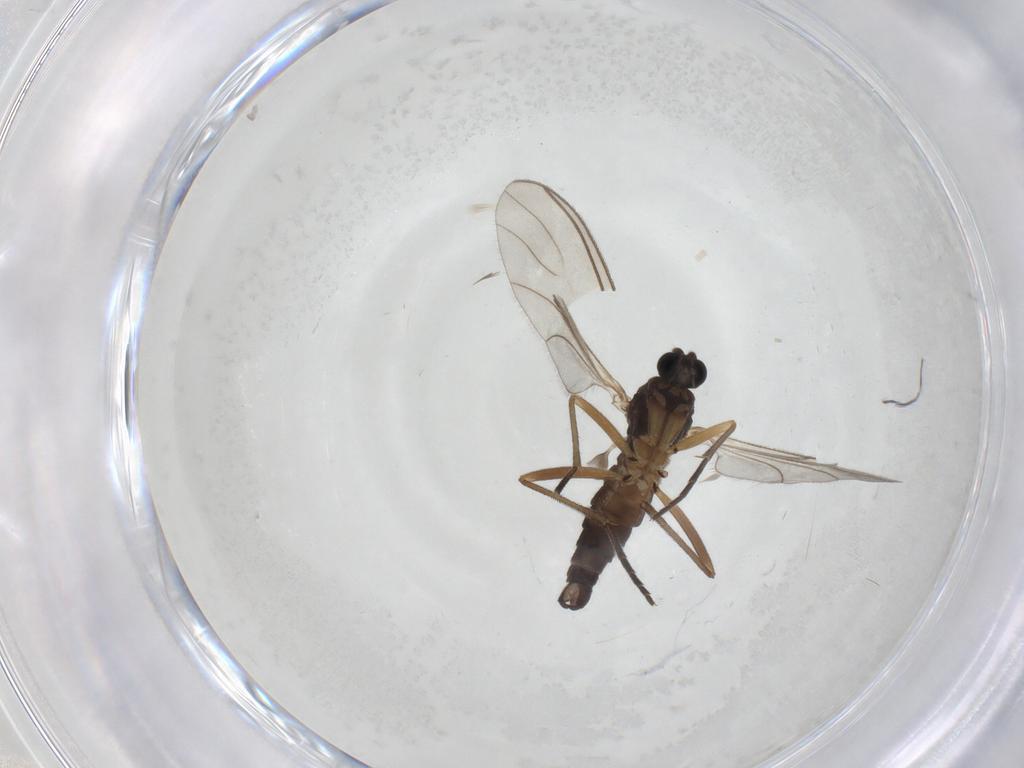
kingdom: Animalia
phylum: Arthropoda
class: Insecta
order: Diptera
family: Sciaridae
